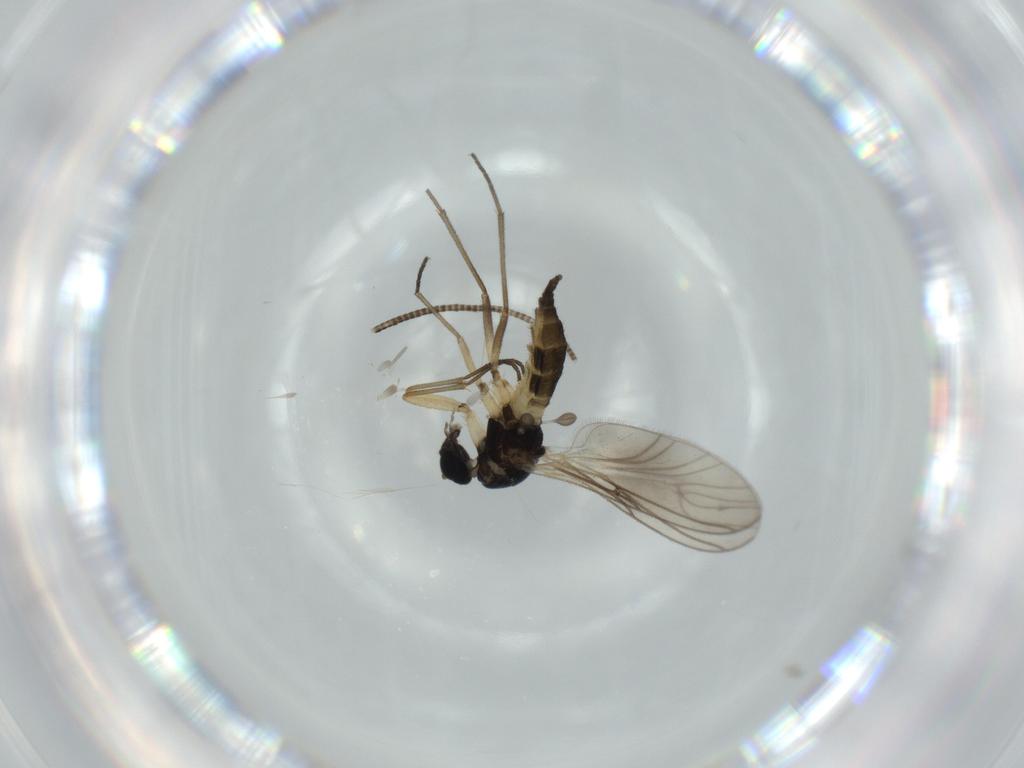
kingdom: Animalia
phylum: Arthropoda
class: Insecta
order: Diptera
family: Sciaridae
